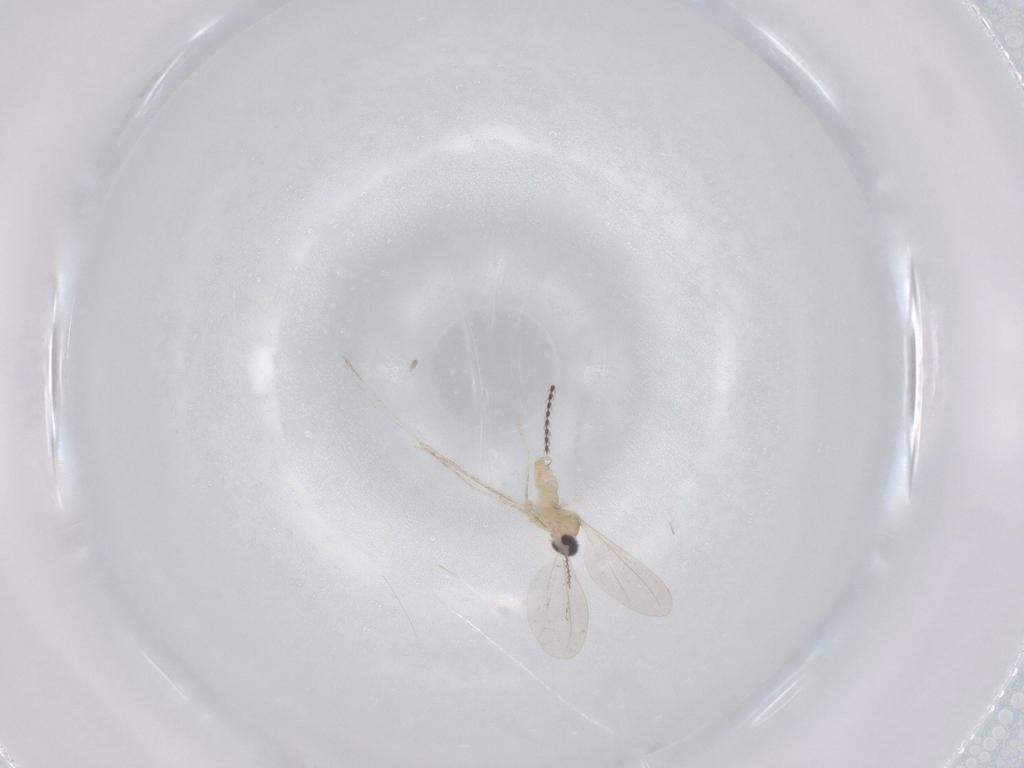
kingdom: Animalia
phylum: Arthropoda
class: Insecta
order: Diptera
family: Cecidomyiidae
